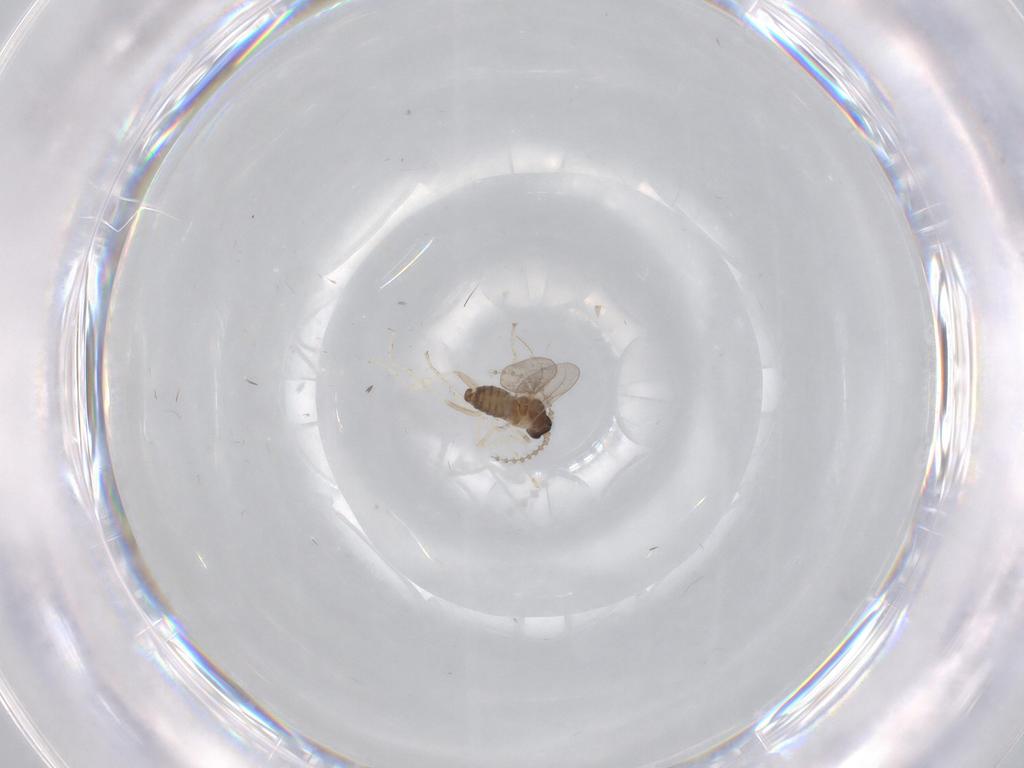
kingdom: Animalia
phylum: Arthropoda
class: Insecta
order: Diptera
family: Cecidomyiidae
